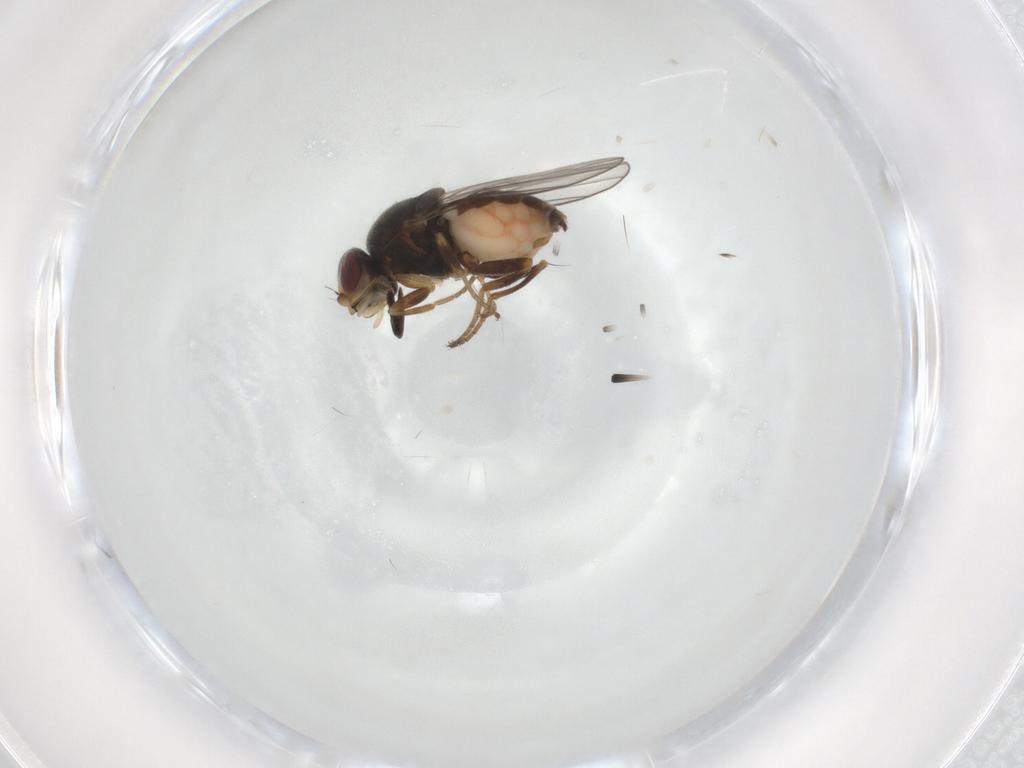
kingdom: Animalia
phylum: Arthropoda
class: Insecta
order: Diptera
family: Chloropidae
